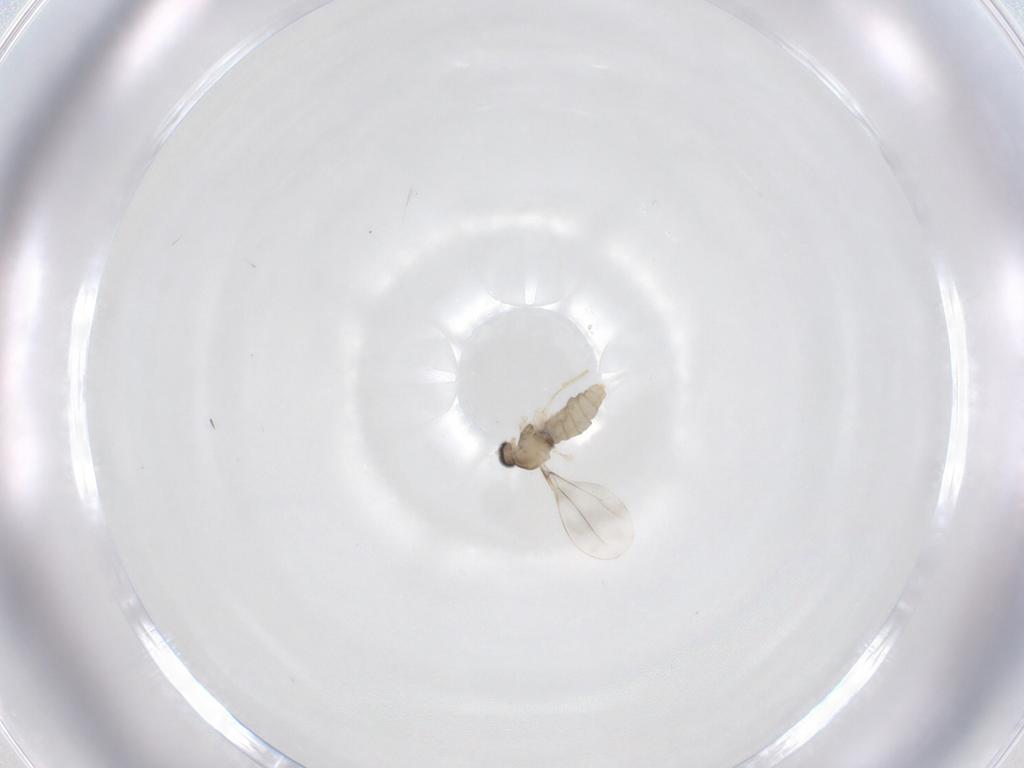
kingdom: Animalia
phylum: Arthropoda
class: Insecta
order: Diptera
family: Cecidomyiidae
